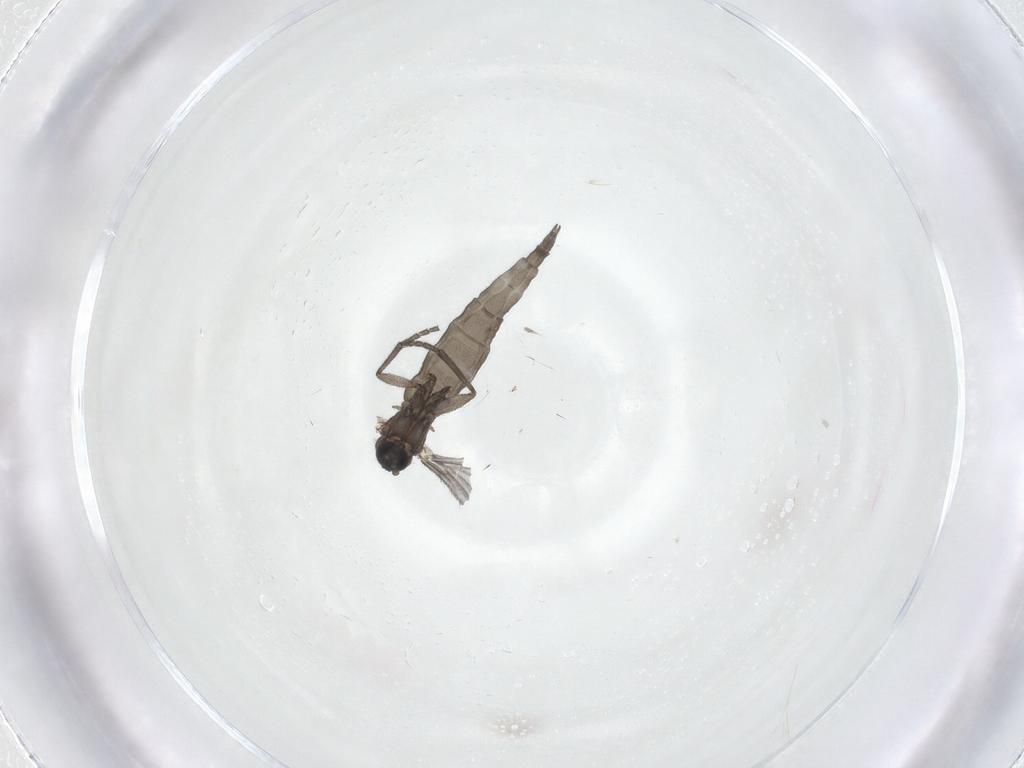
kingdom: Animalia
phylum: Arthropoda
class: Insecta
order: Diptera
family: Sciaridae
